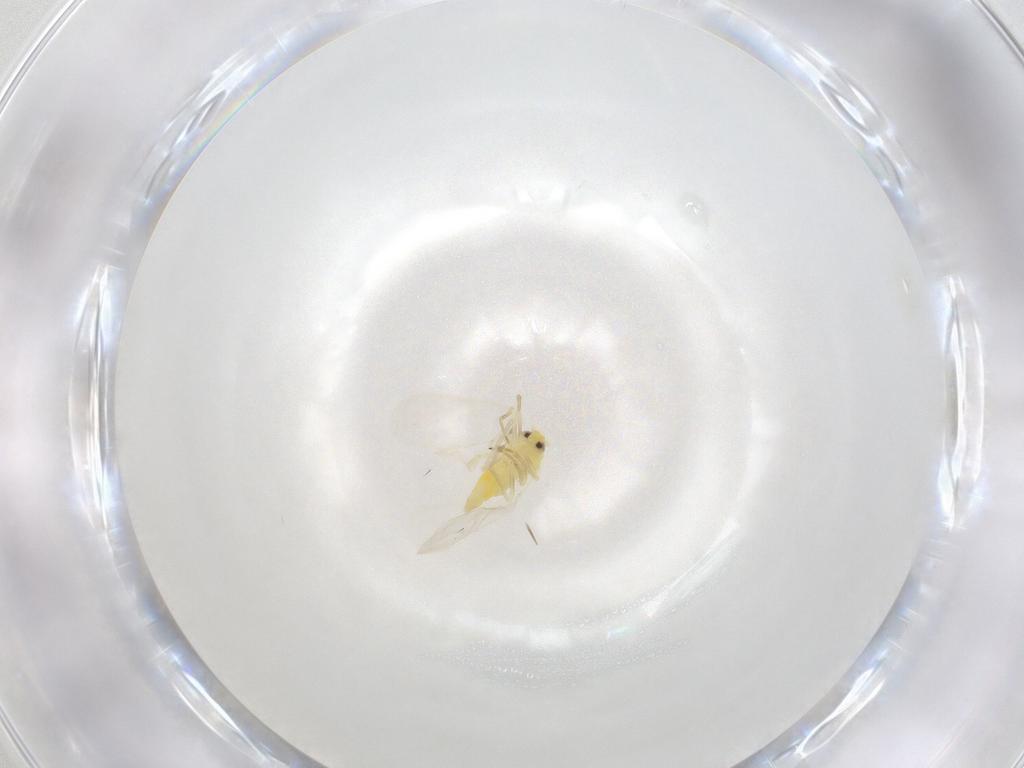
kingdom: Animalia
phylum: Arthropoda
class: Insecta
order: Hemiptera
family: Aleyrodidae
